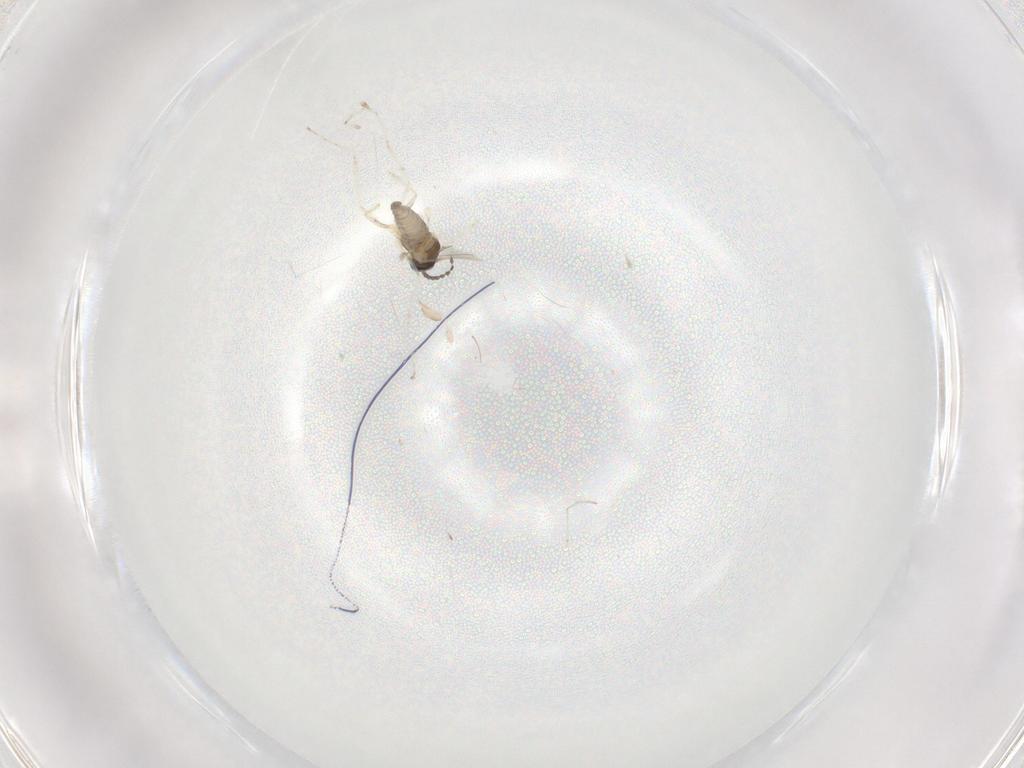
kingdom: Animalia
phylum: Arthropoda
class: Insecta
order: Diptera
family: Cecidomyiidae
